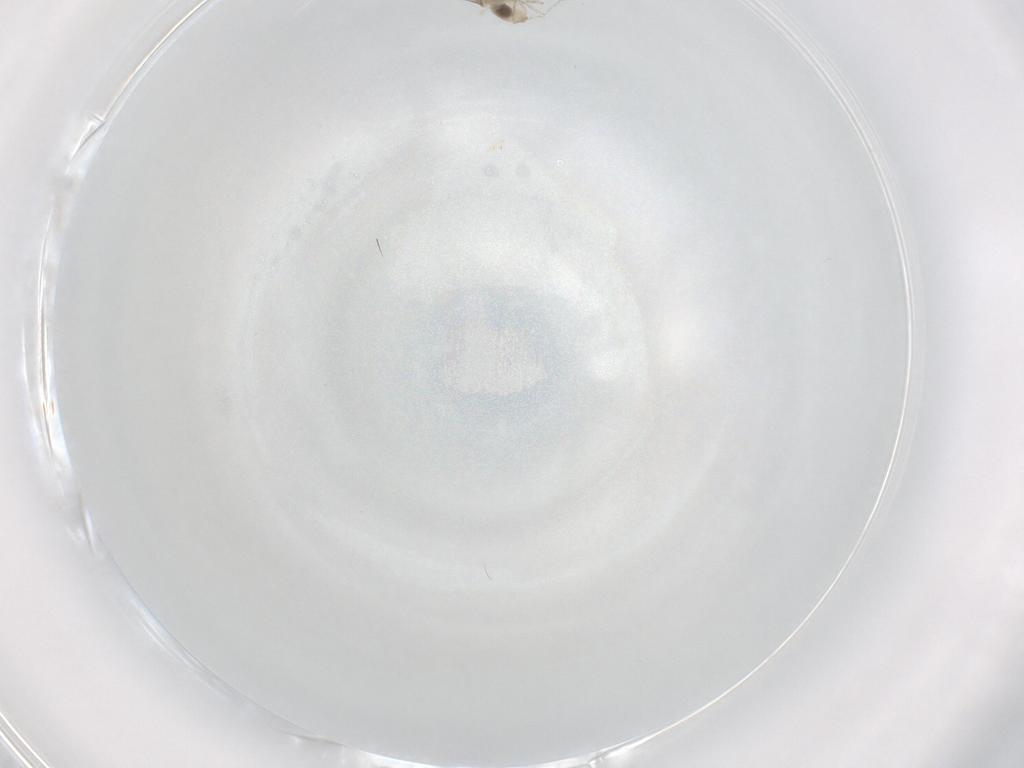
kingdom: Animalia
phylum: Arthropoda
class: Insecta
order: Diptera
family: Cecidomyiidae
